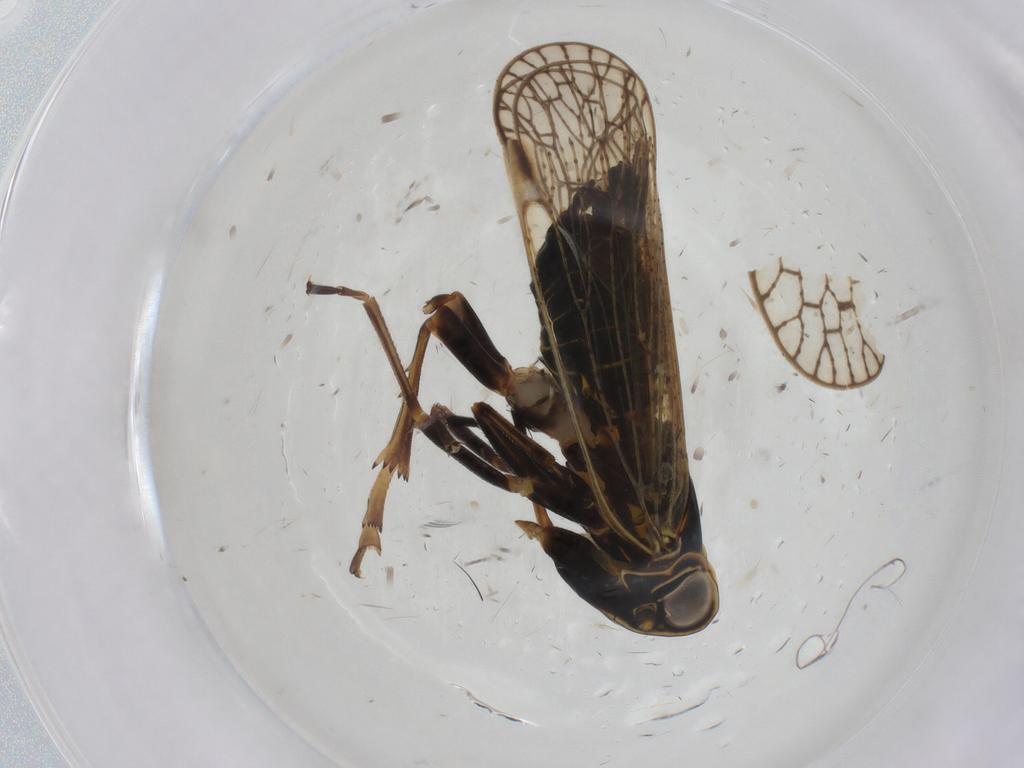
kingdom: Animalia
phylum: Arthropoda
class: Insecta
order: Hemiptera
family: Cixiidae
